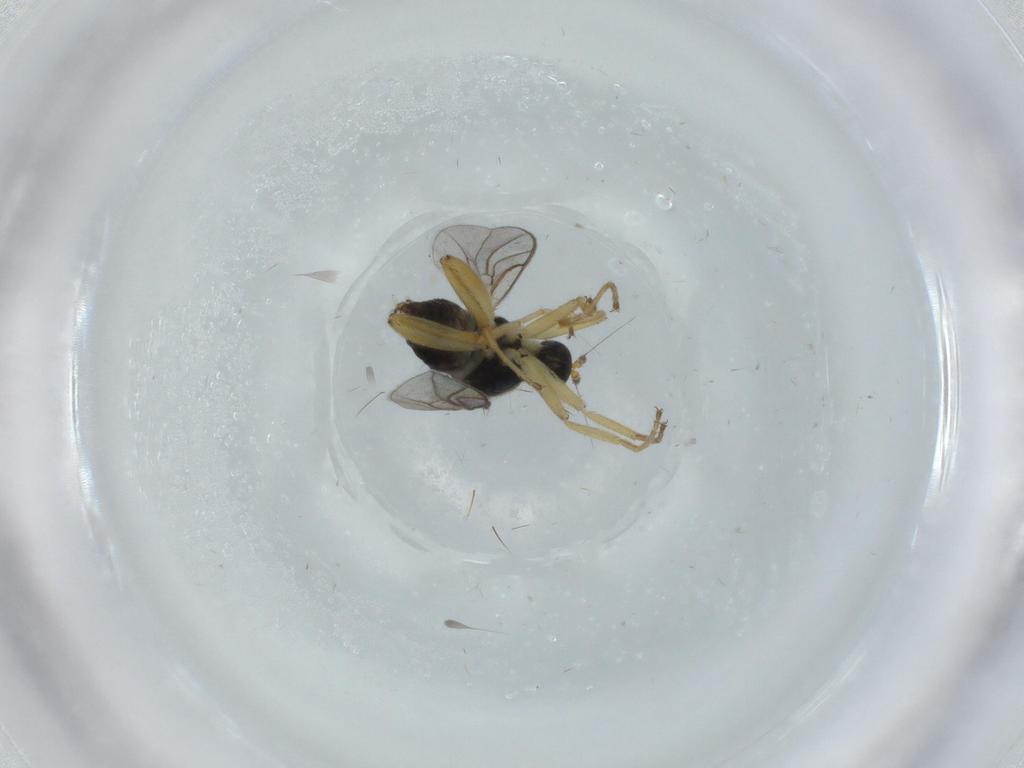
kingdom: Animalia
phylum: Arthropoda
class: Insecta
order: Diptera
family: Hybotidae
